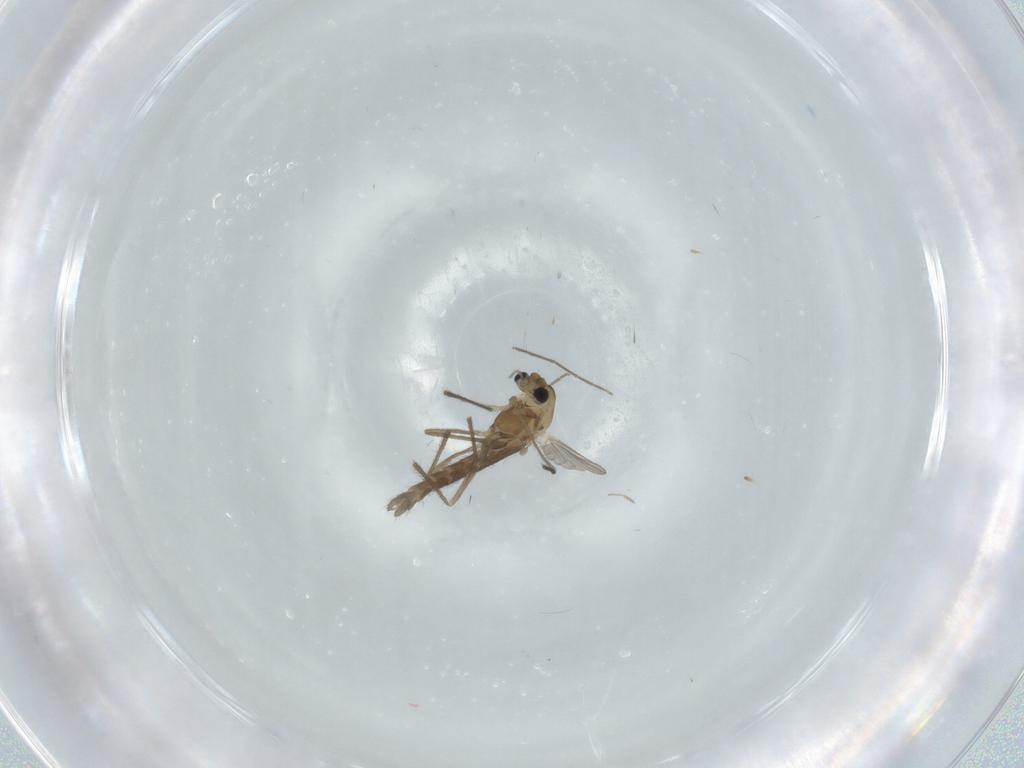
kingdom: Animalia
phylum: Arthropoda
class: Insecta
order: Diptera
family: Chironomidae
